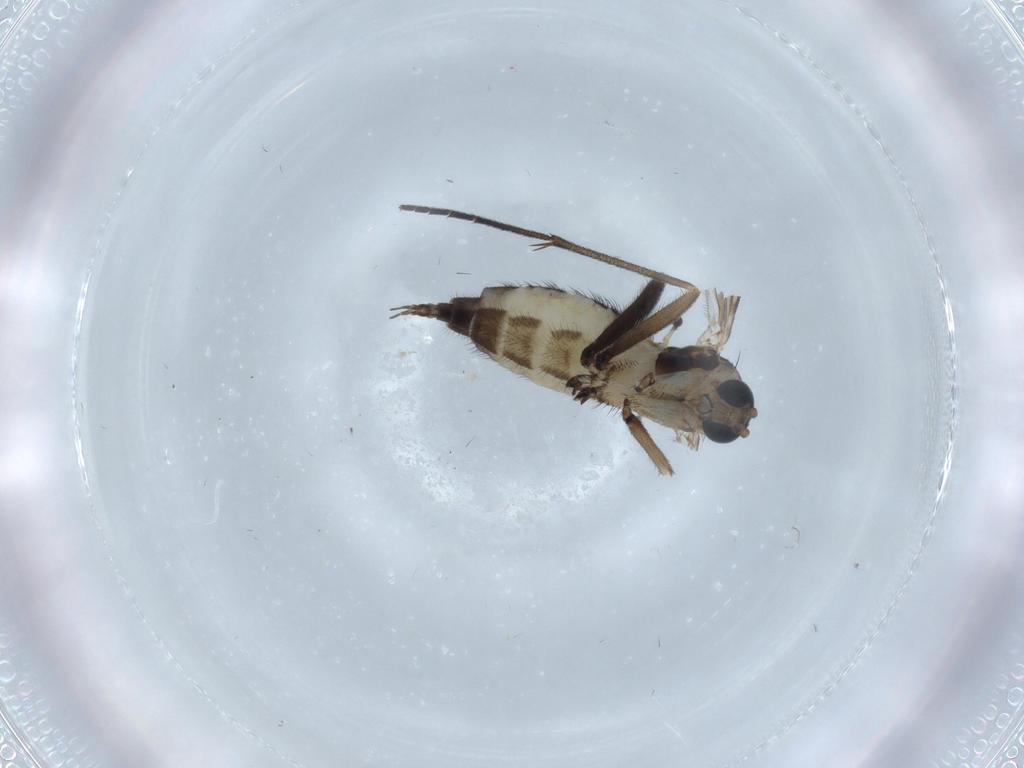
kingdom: Animalia
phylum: Arthropoda
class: Insecta
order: Diptera
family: Sciaridae
